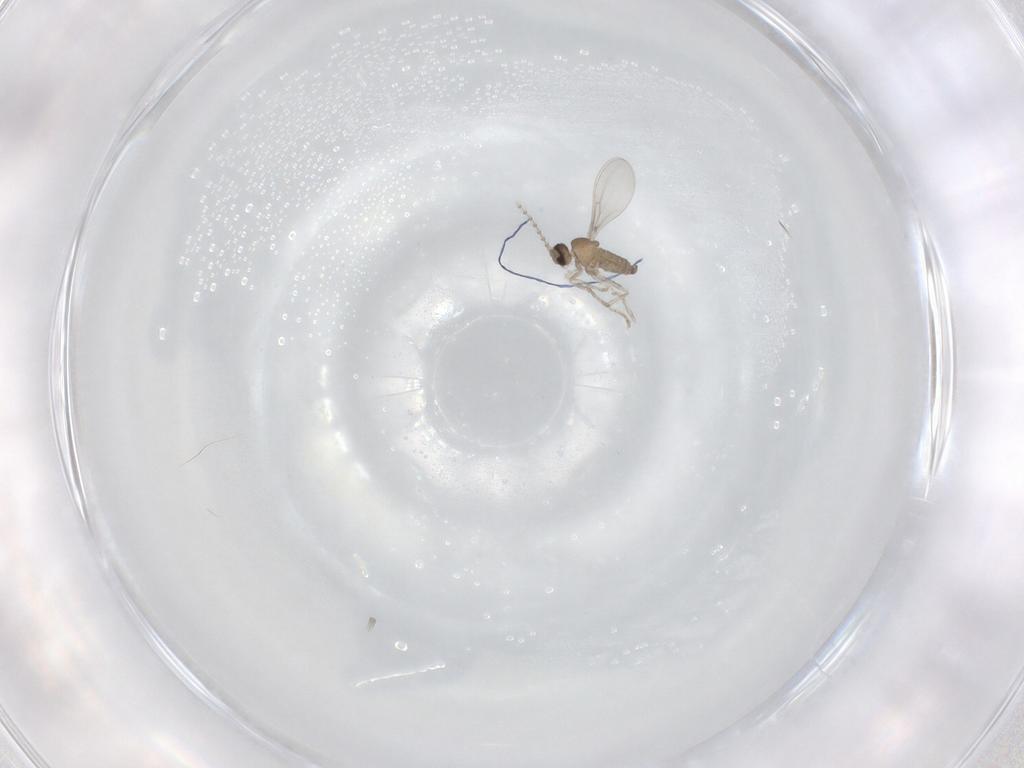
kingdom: Animalia
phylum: Arthropoda
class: Insecta
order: Diptera
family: Cecidomyiidae
